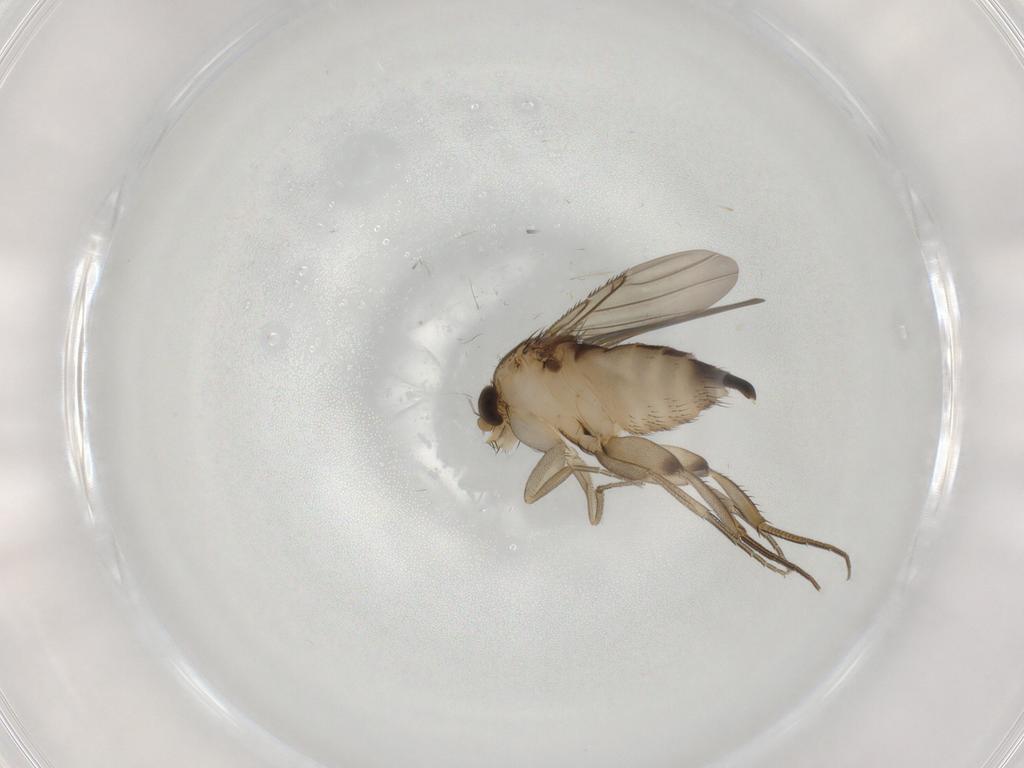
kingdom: Animalia
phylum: Arthropoda
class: Insecta
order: Diptera
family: Phoridae
